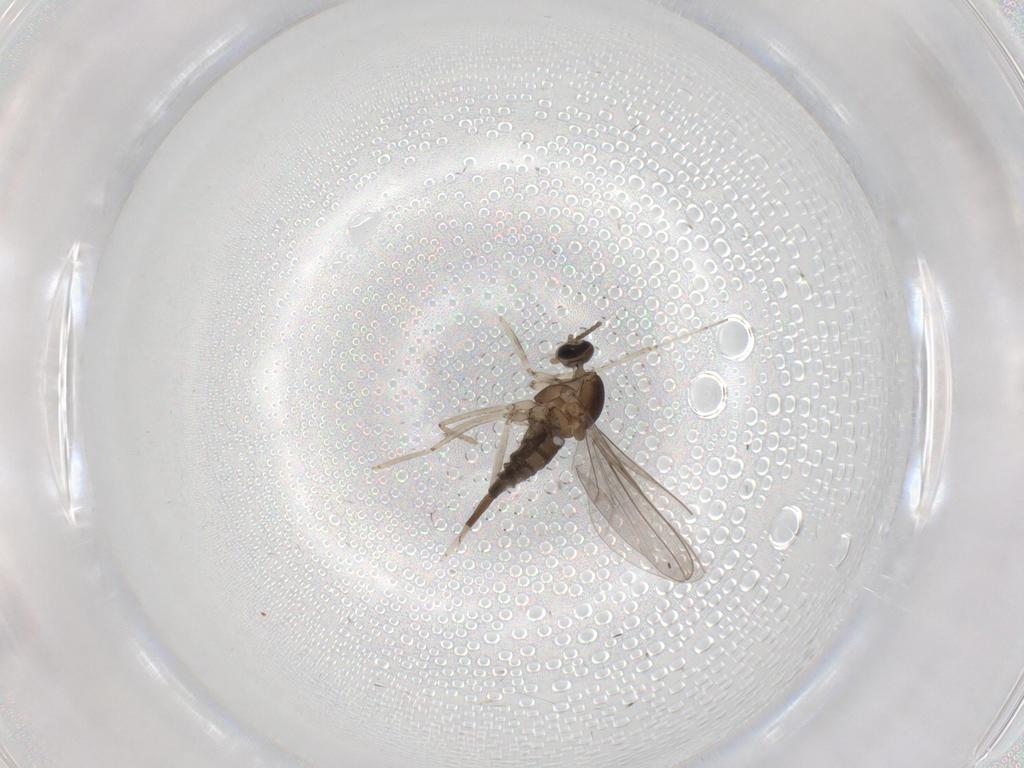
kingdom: Animalia
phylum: Arthropoda
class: Insecta
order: Diptera
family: Cecidomyiidae
